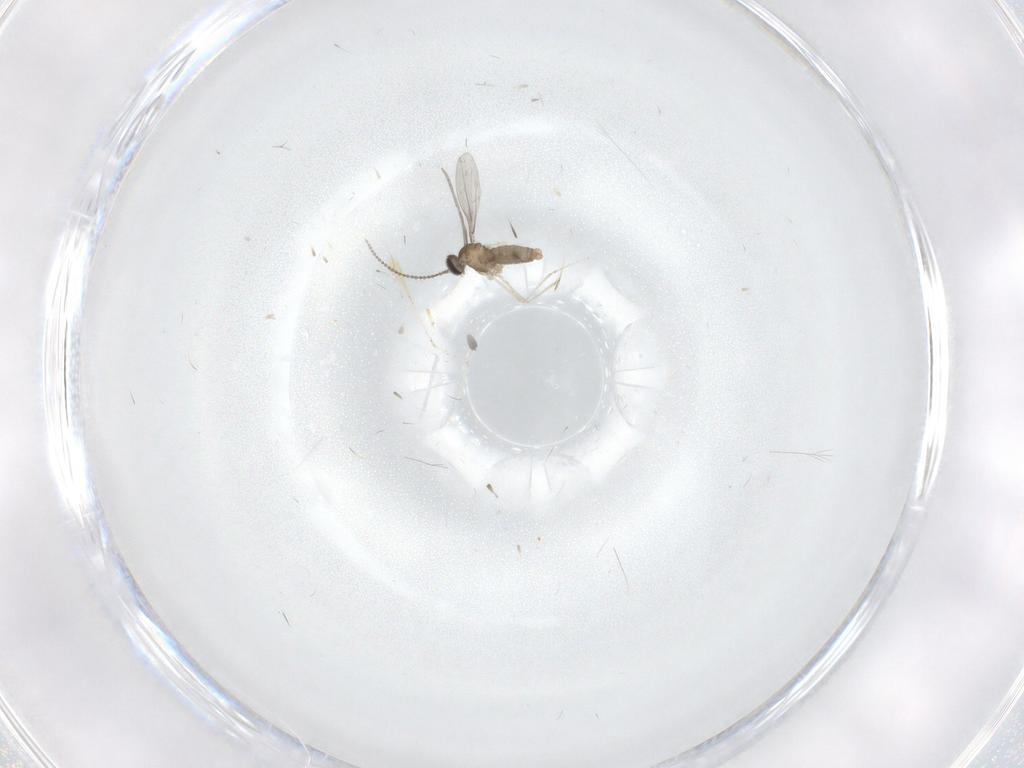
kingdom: Animalia
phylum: Arthropoda
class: Insecta
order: Diptera
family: Cecidomyiidae
